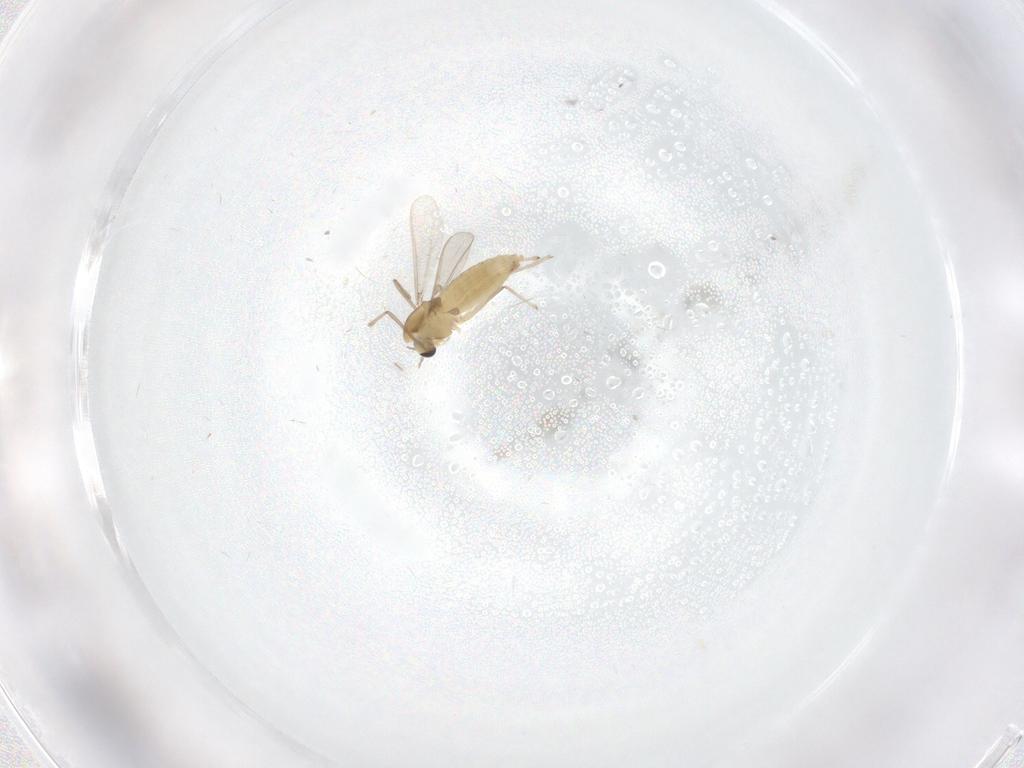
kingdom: Animalia
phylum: Arthropoda
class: Insecta
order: Diptera
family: Chironomidae
